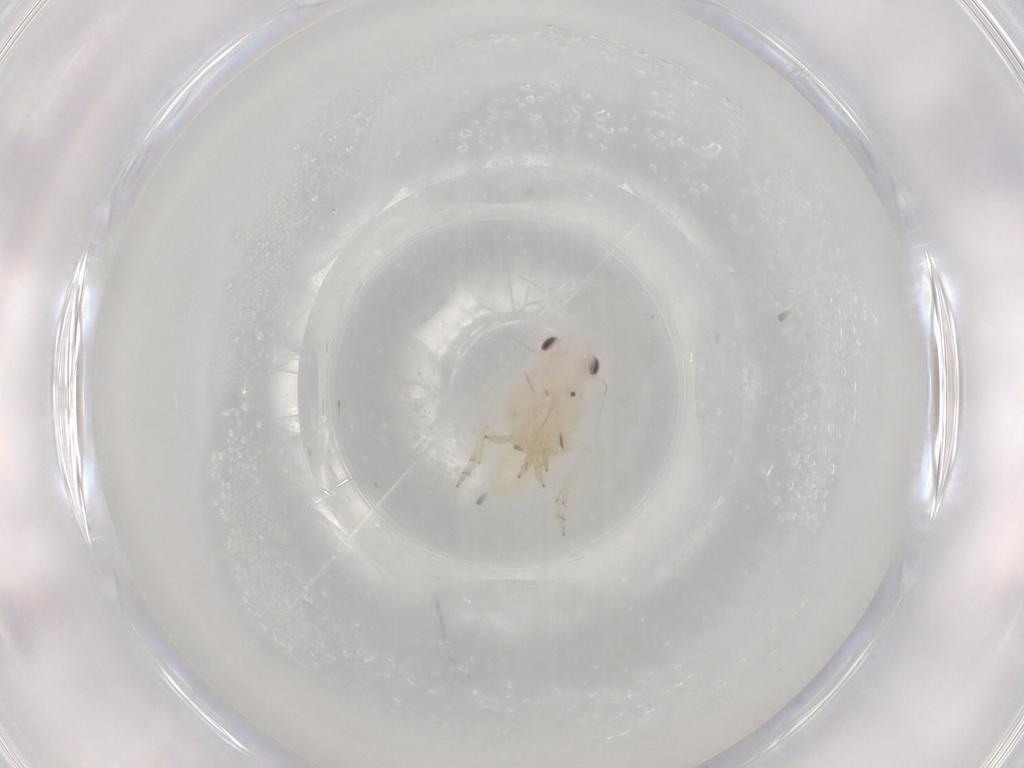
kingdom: Animalia
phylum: Arthropoda
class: Insecta
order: Hemiptera
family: Tropiduchidae
